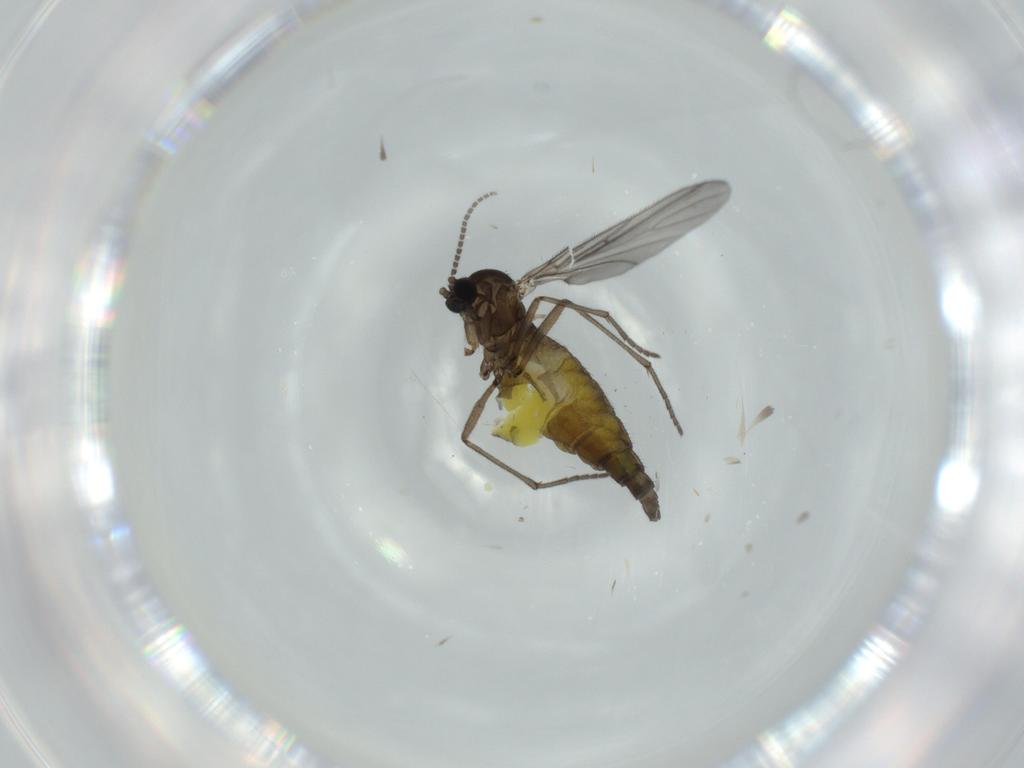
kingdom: Animalia
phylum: Arthropoda
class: Insecta
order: Diptera
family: Sciaridae
